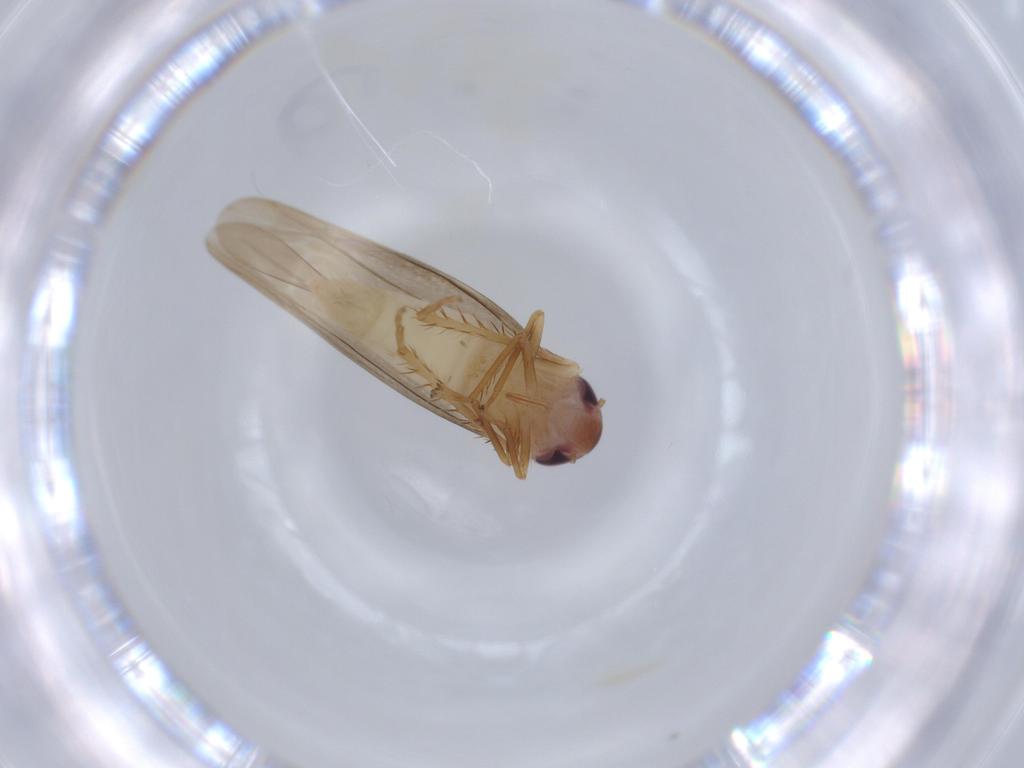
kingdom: Animalia
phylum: Arthropoda
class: Insecta
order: Hemiptera
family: Cicadellidae
